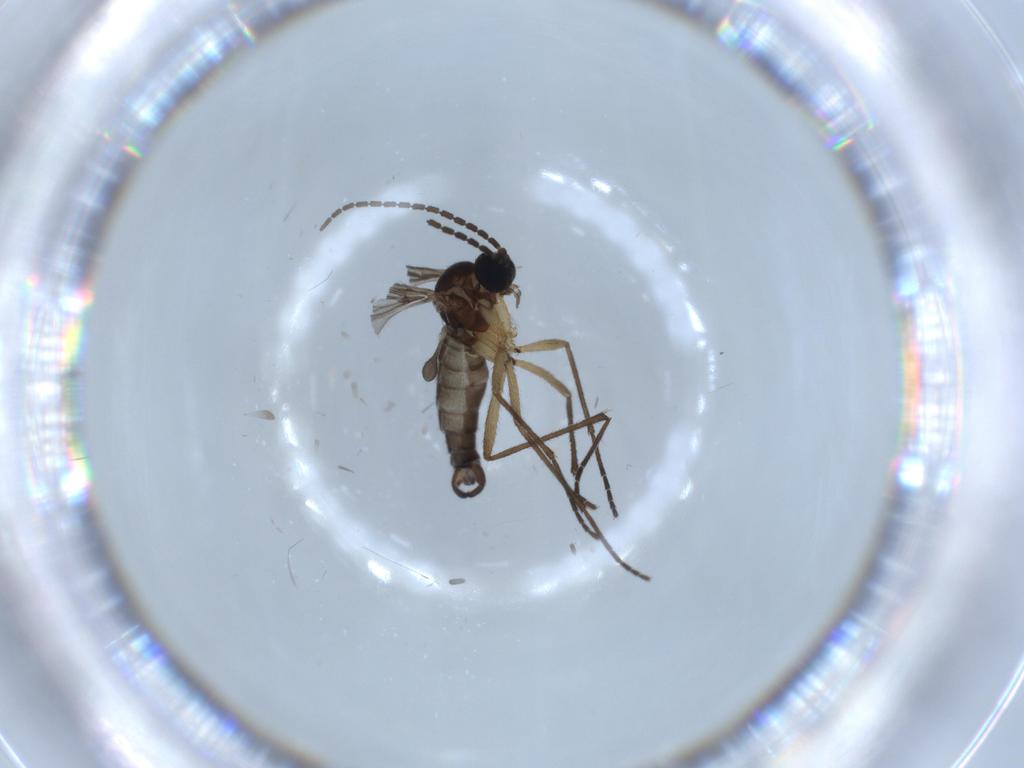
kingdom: Animalia
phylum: Arthropoda
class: Insecta
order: Diptera
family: Sciaridae
